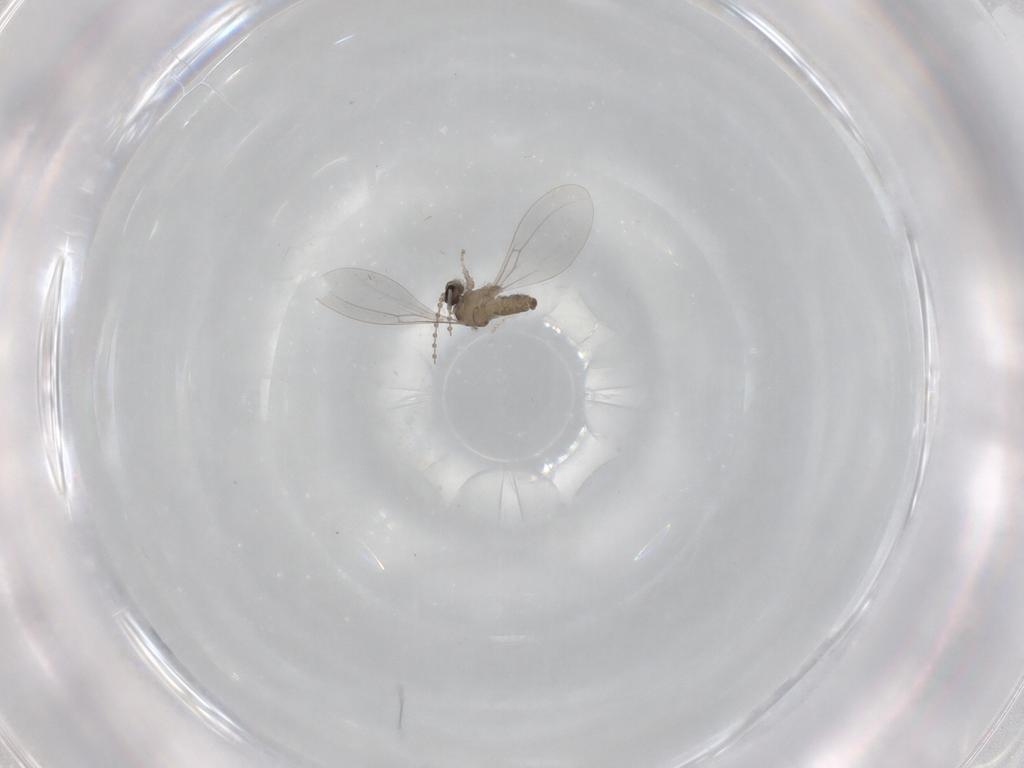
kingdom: Animalia
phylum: Arthropoda
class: Insecta
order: Diptera
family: Cecidomyiidae
